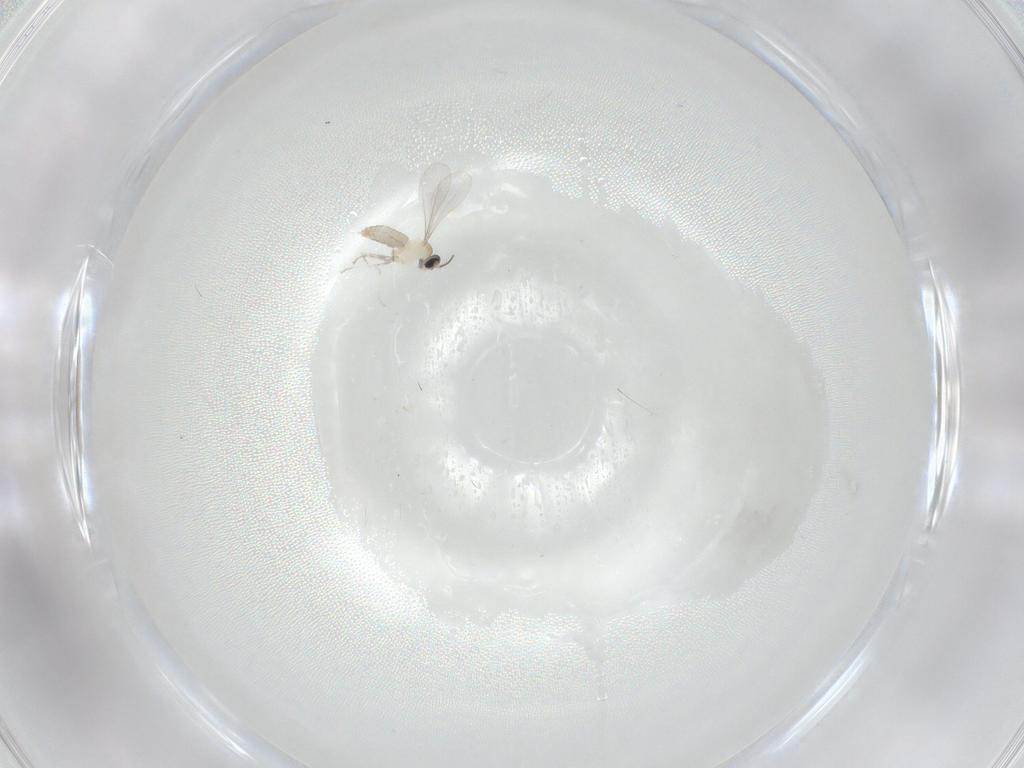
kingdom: Animalia
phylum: Arthropoda
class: Insecta
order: Diptera
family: Cecidomyiidae
